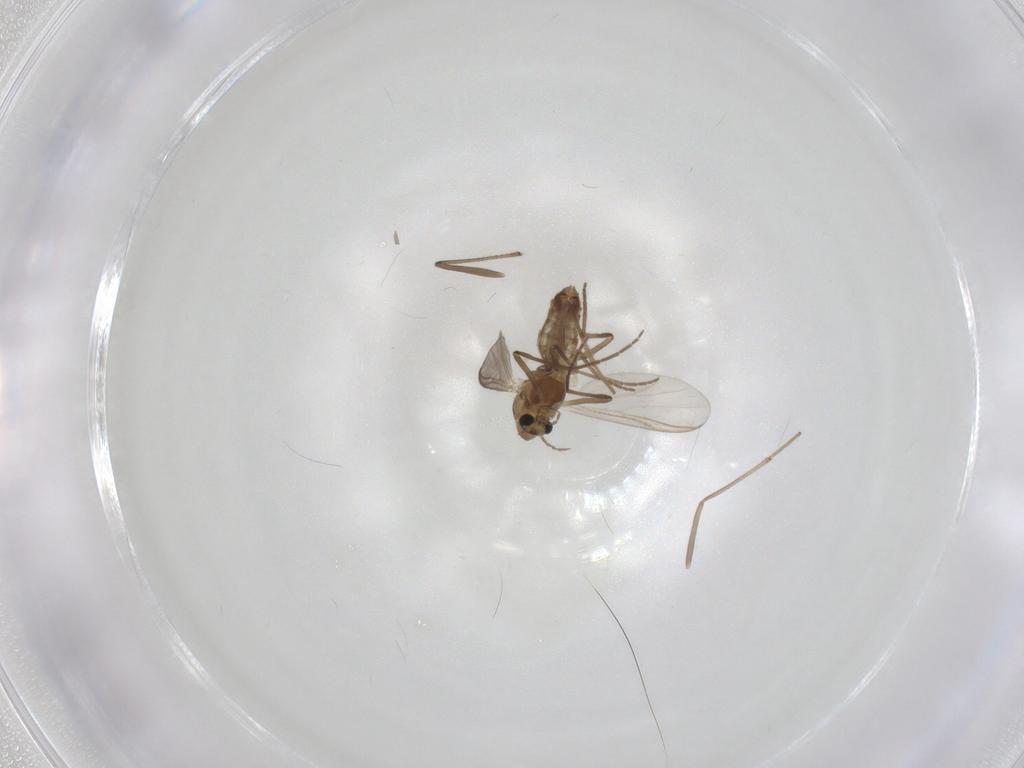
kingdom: Animalia
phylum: Arthropoda
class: Insecta
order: Diptera
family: Chironomidae
